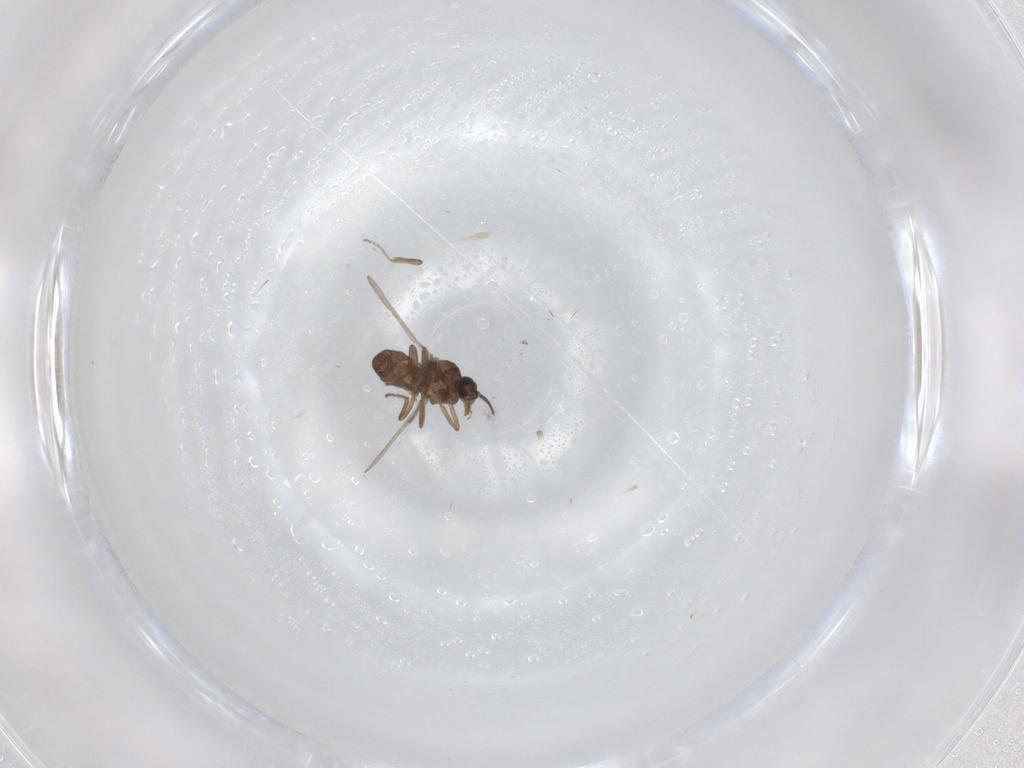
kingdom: Animalia
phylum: Arthropoda
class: Insecta
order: Diptera
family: Ceratopogonidae
